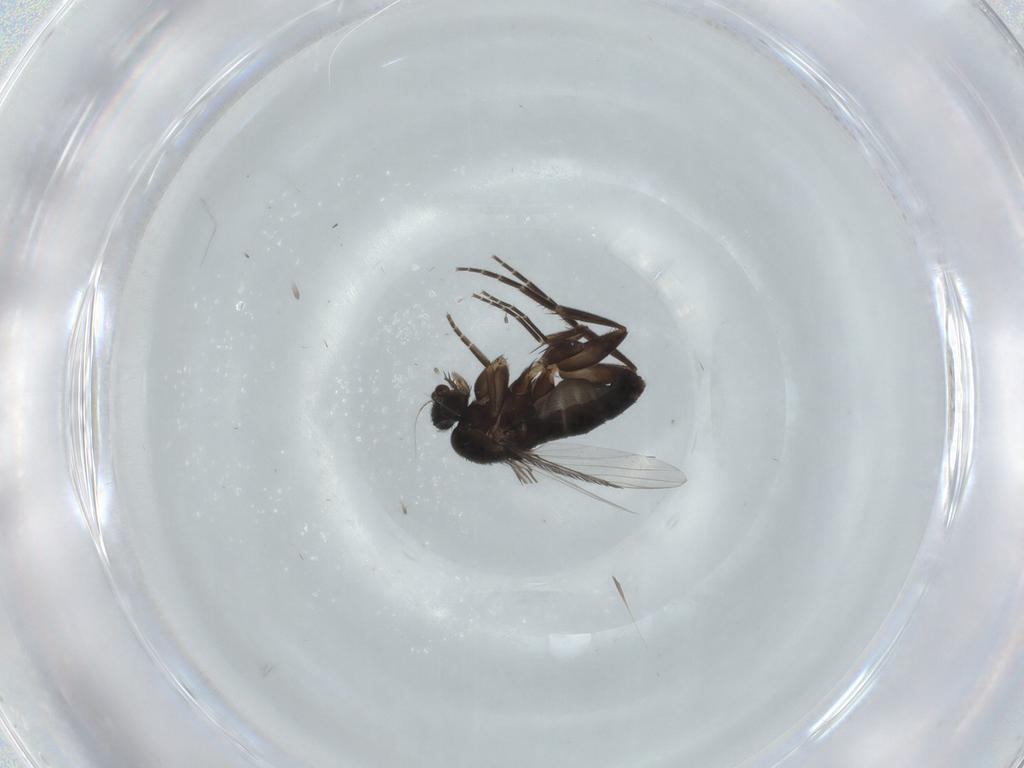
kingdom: Animalia
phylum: Arthropoda
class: Insecta
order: Diptera
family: Phoridae
